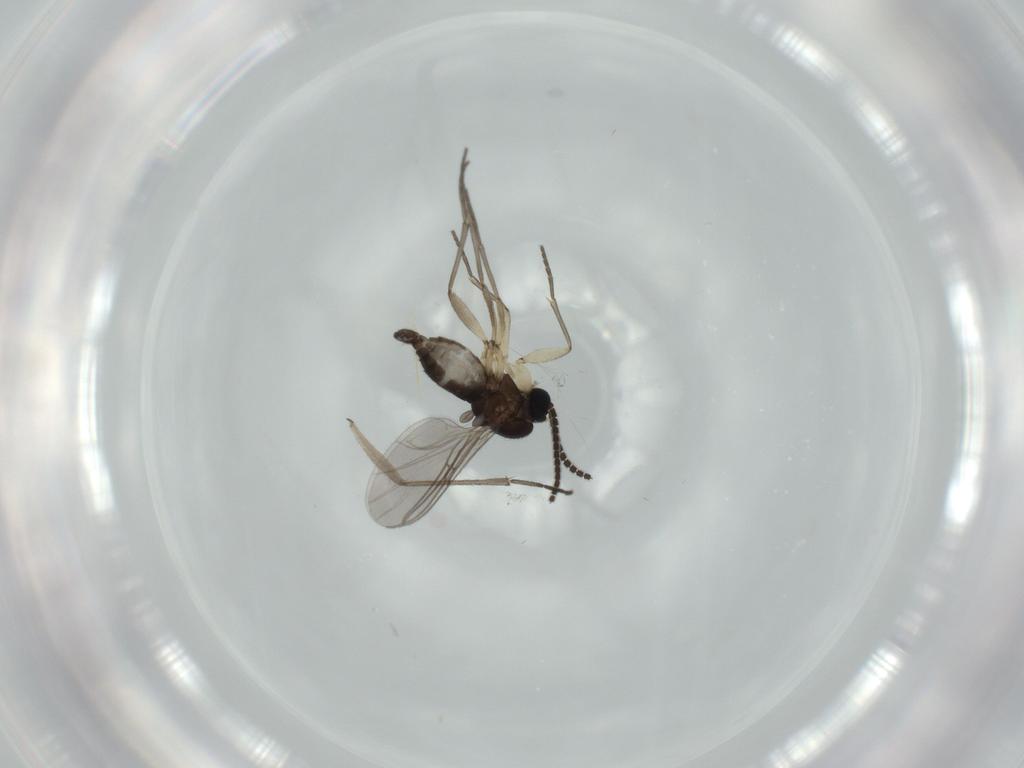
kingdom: Animalia
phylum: Arthropoda
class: Insecta
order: Diptera
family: Sciaridae
